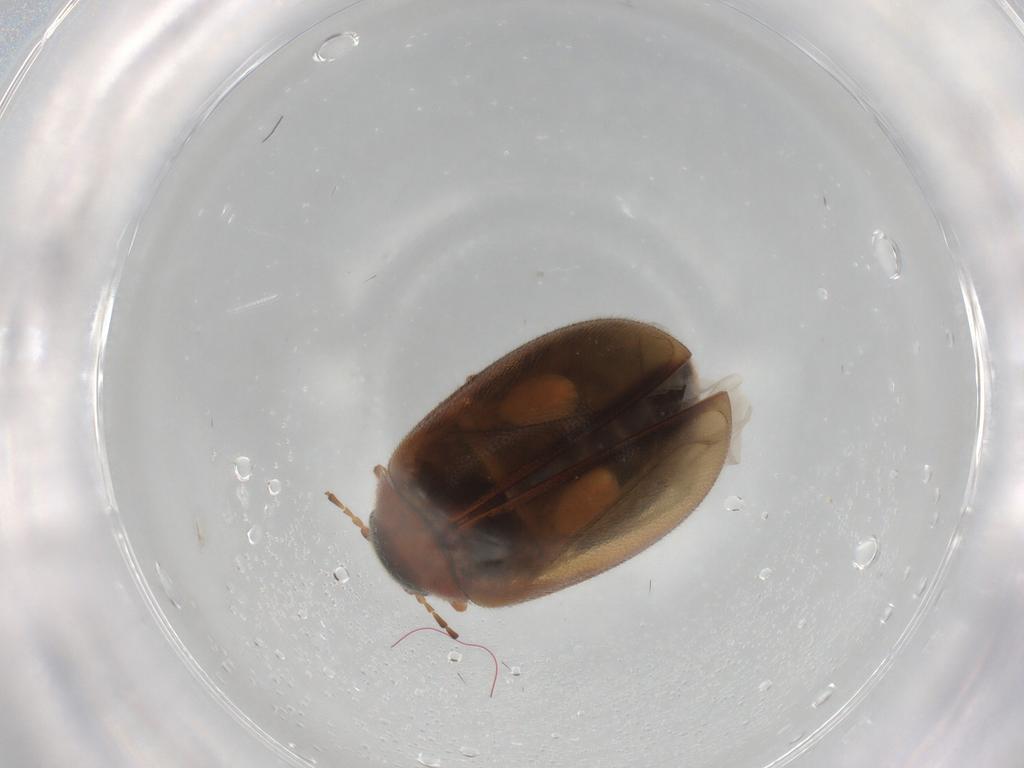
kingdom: Animalia
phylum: Arthropoda
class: Insecta
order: Coleoptera
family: Scirtidae
